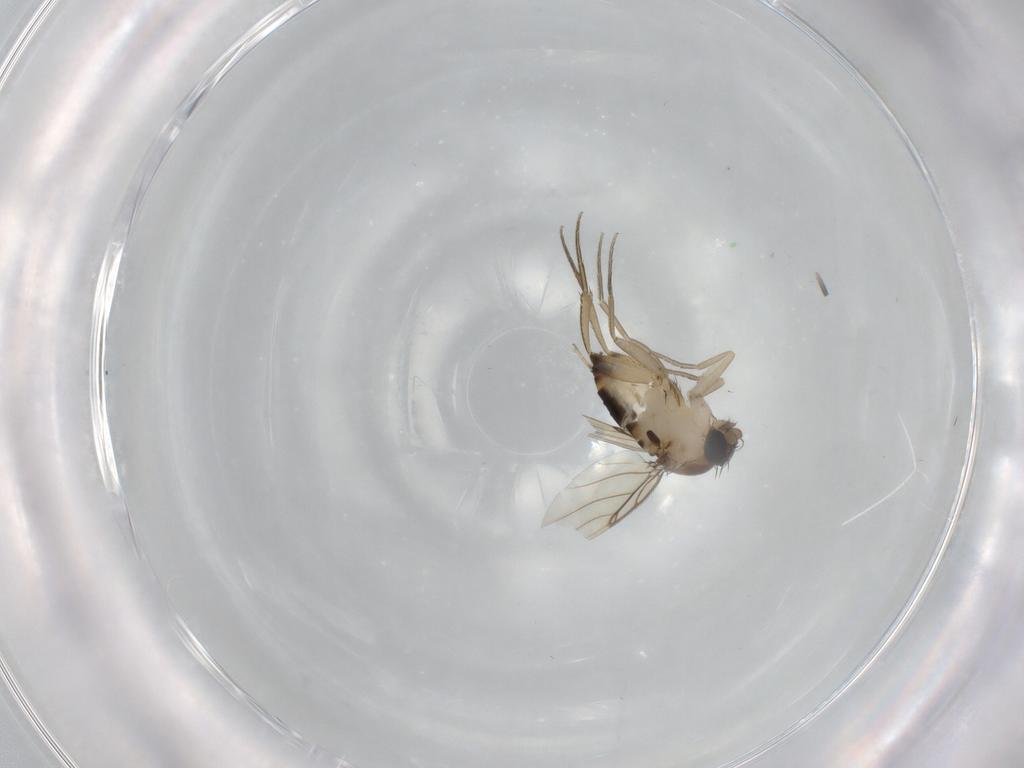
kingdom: Animalia
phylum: Arthropoda
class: Insecta
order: Diptera
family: Phoridae
